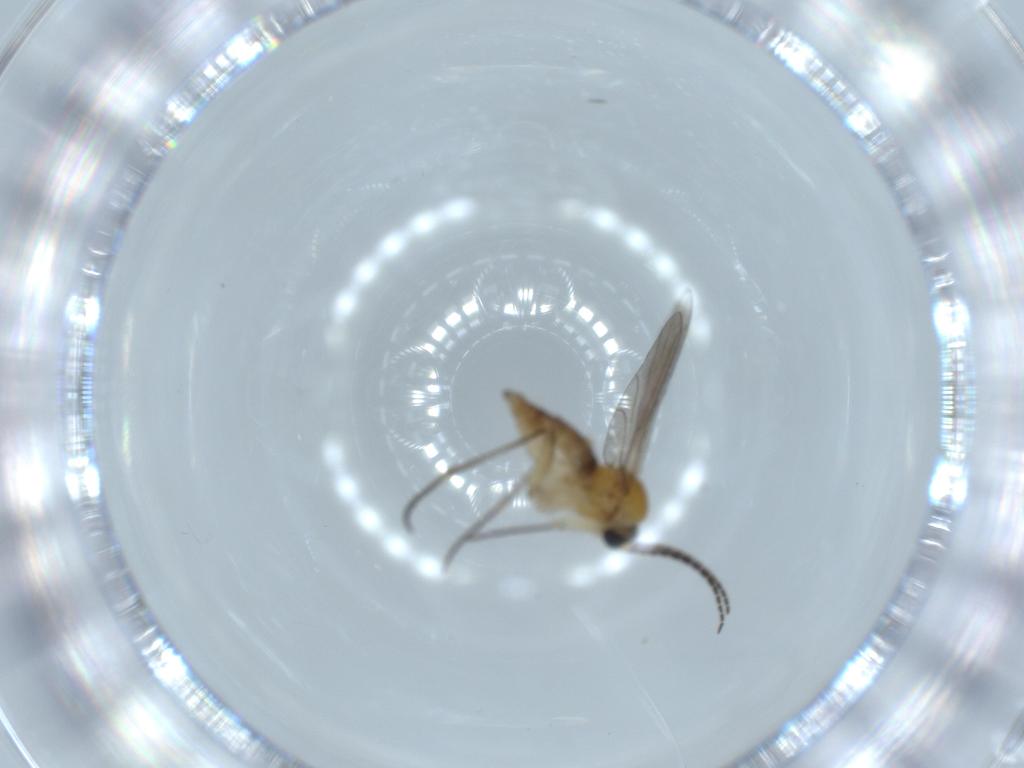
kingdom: Animalia
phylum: Arthropoda
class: Insecta
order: Diptera
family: Sciaridae
